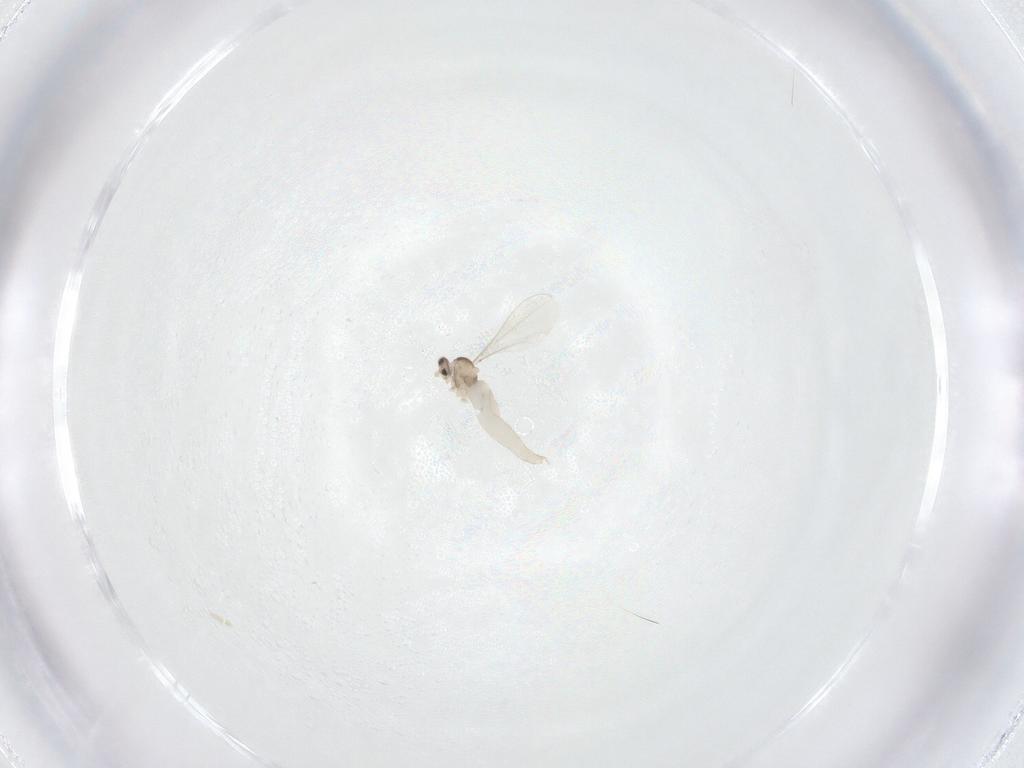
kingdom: Animalia
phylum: Arthropoda
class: Insecta
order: Diptera
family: Cecidomyiidae
